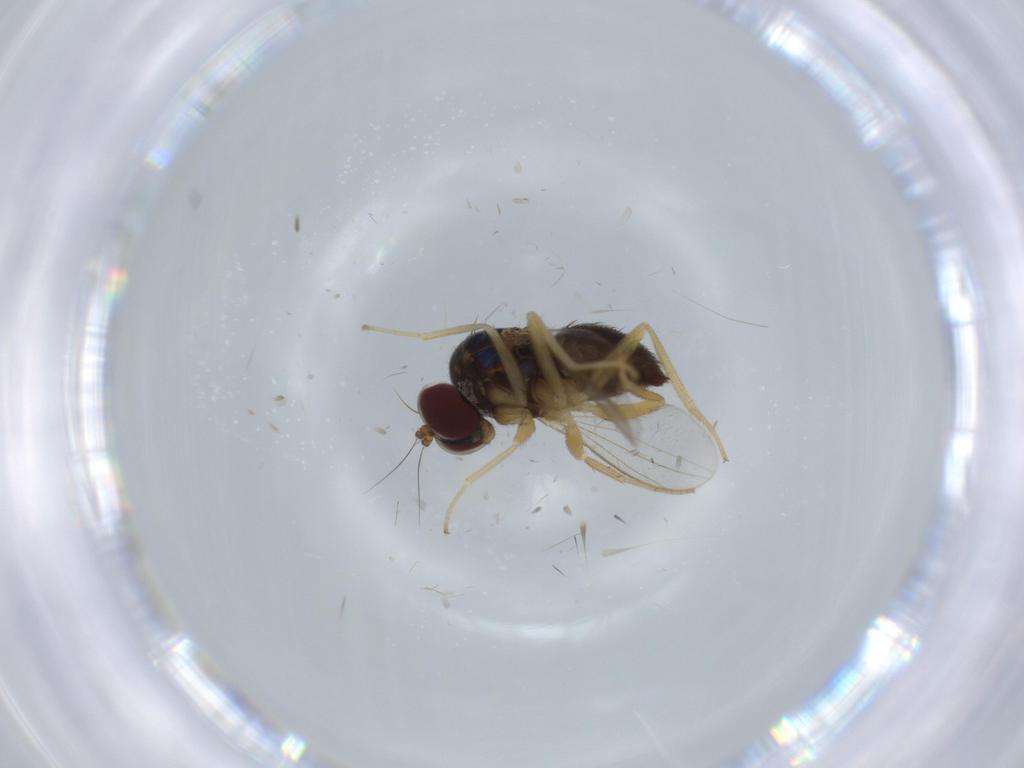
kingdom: Animalia
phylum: Arthropoda
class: Insecta
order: Diptera
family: Dolichopodidae
